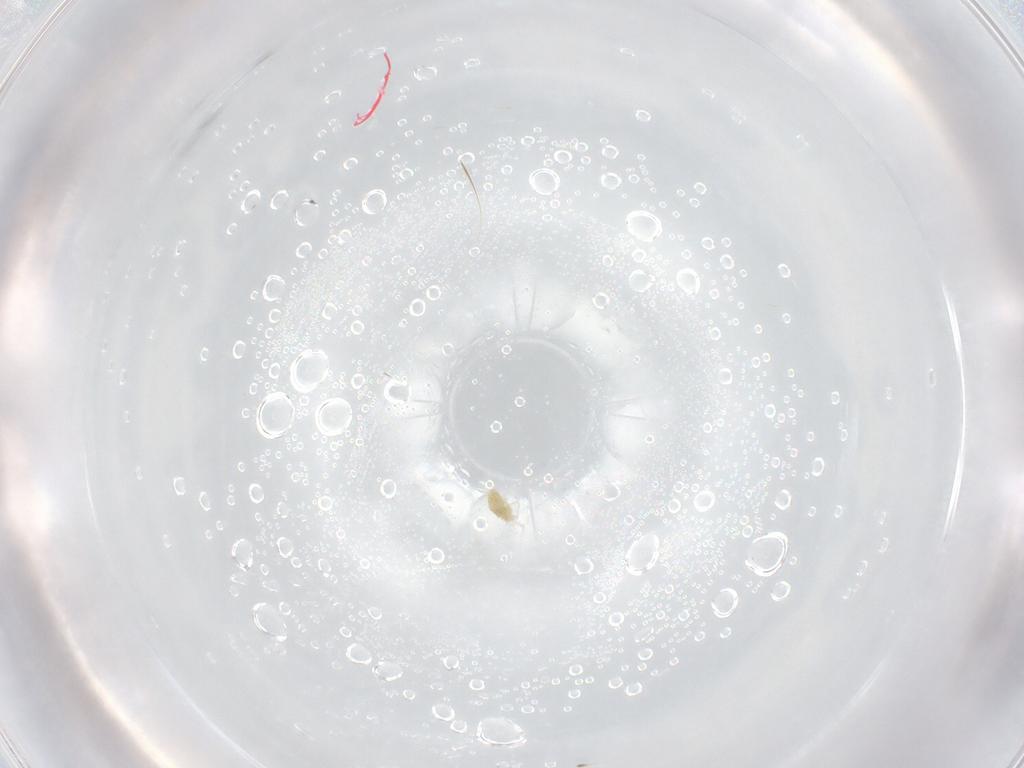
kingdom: Animalia
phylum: Arthropoda
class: Arachnida
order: Trombidiformes
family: Eupodidae
